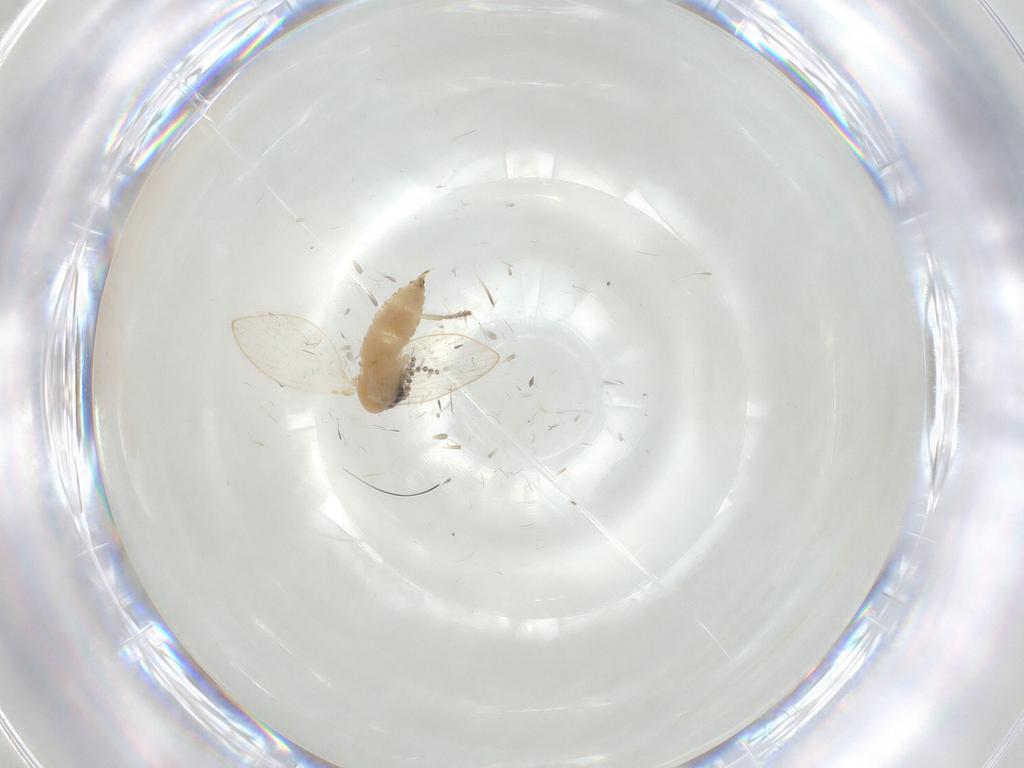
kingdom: Animalia
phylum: Arthropoda
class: Insecta
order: Diptera
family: Psychodidae
